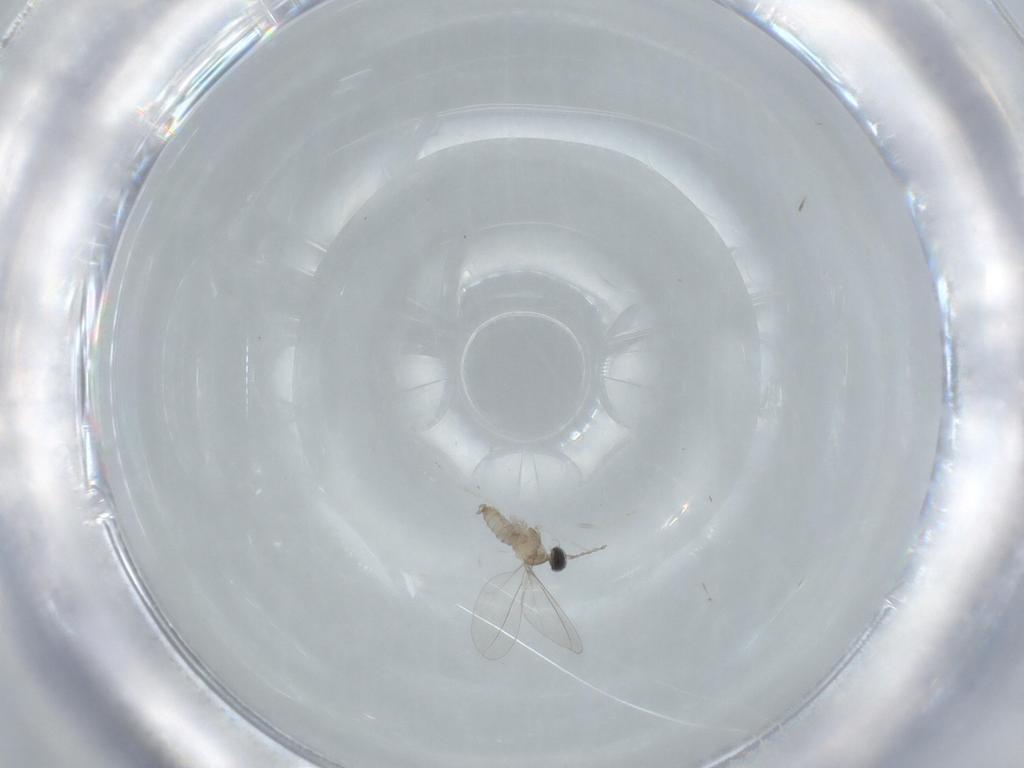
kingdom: Animalia
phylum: Arthropoda
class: Insecta
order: Diptera
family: Cecidomyiidae
